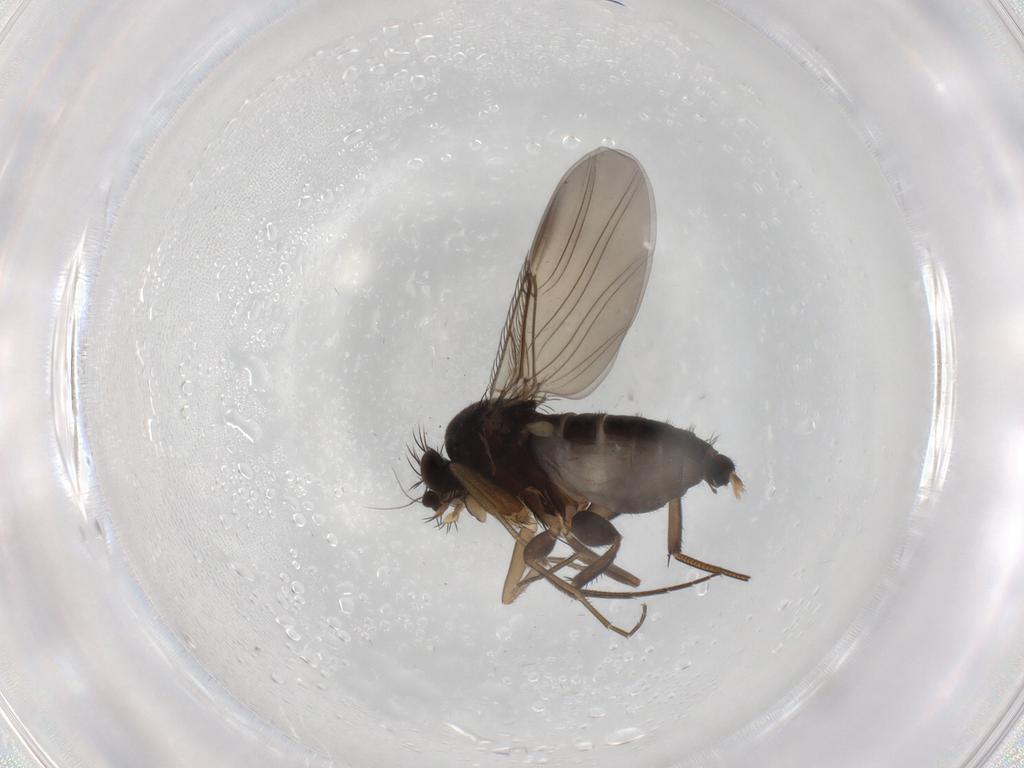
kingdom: Animalia
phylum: Arthropoda
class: Insecta
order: Diptera
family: Phoridae
